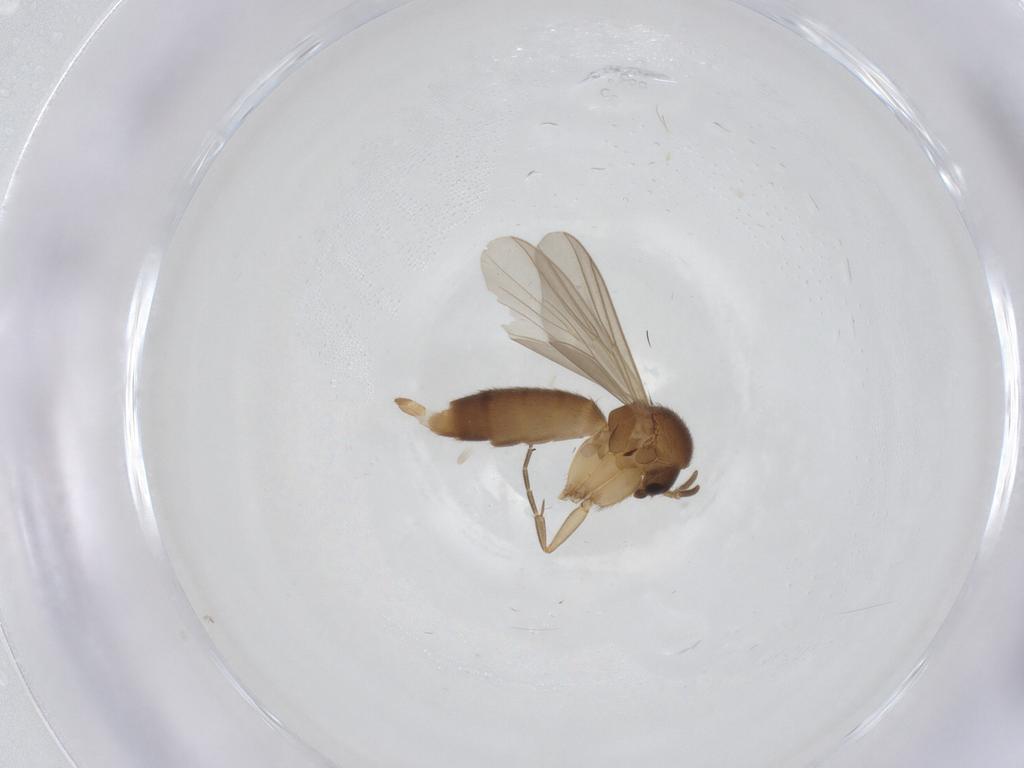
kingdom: Animalia
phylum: Arthropoda
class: Insecta
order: Diptera
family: Mycetophilidae
